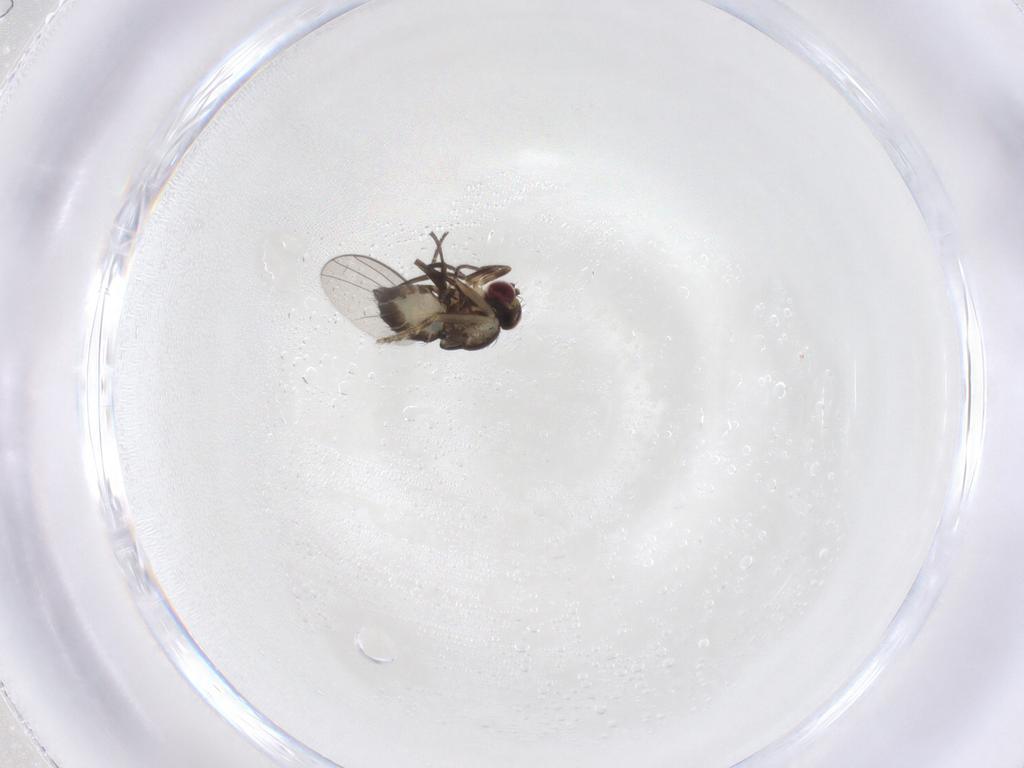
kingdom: Animalia
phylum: Arthropoda
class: Insecta
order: Diptera
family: Agromyzidae
